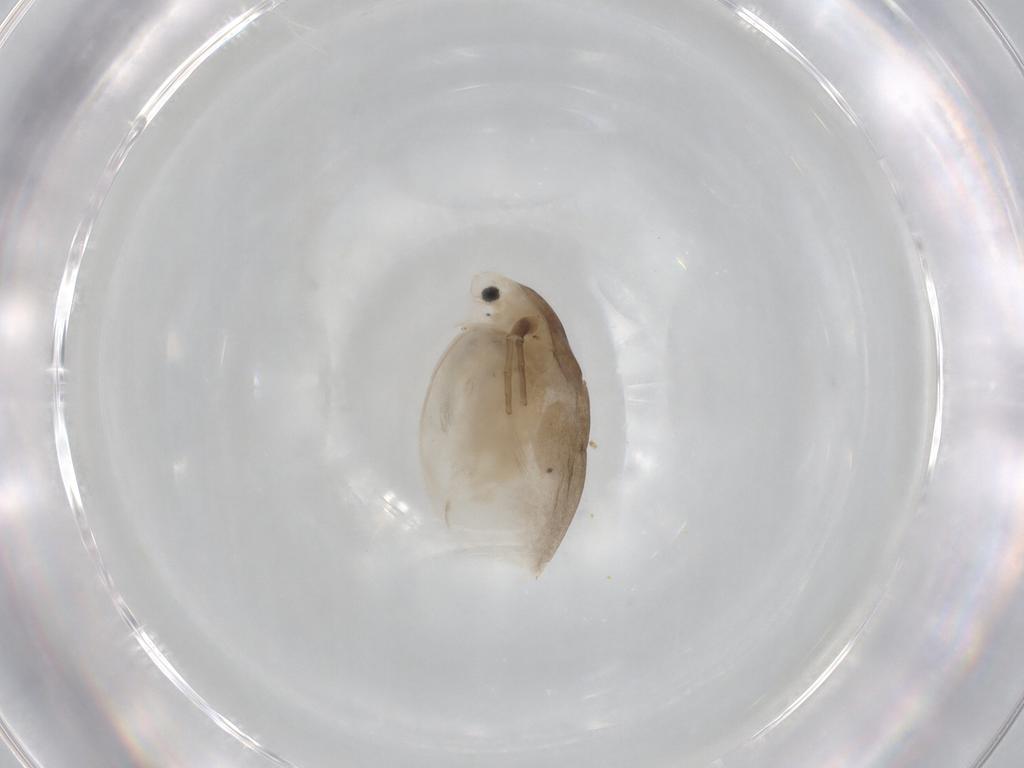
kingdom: Animalia
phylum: Arthropoda
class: Branchiopoda
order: Diplostraca
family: Daphniidae
